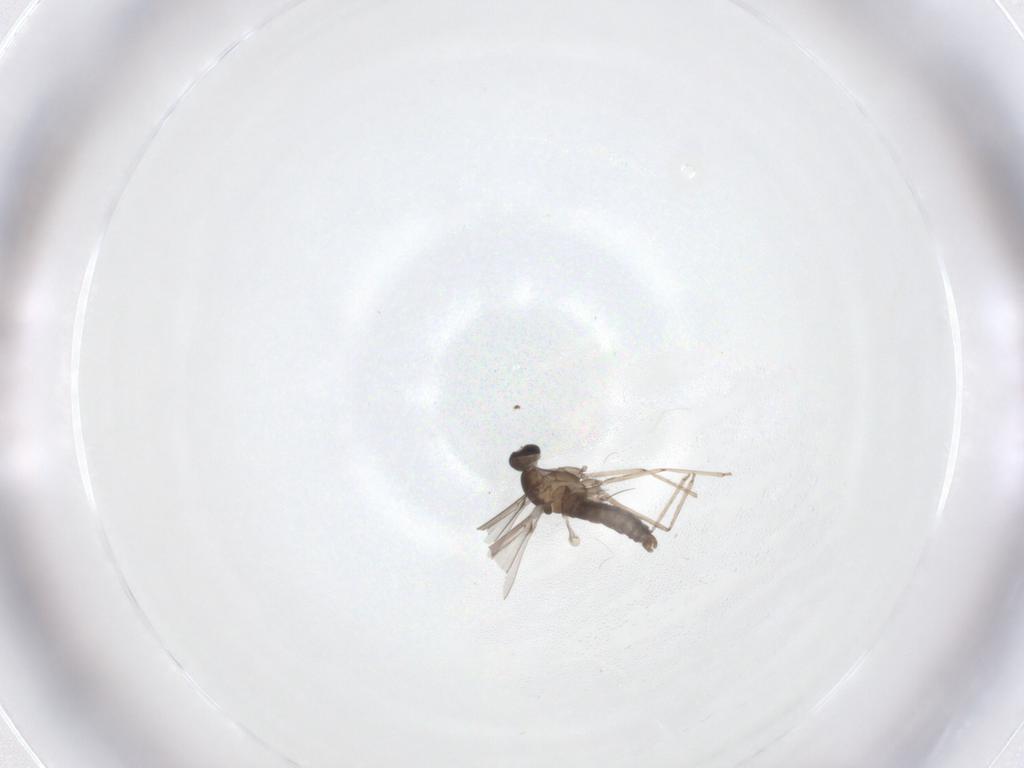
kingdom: Animalia
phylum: Arthropoda
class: Insecta
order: Diptera
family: Cecidomyiidae
